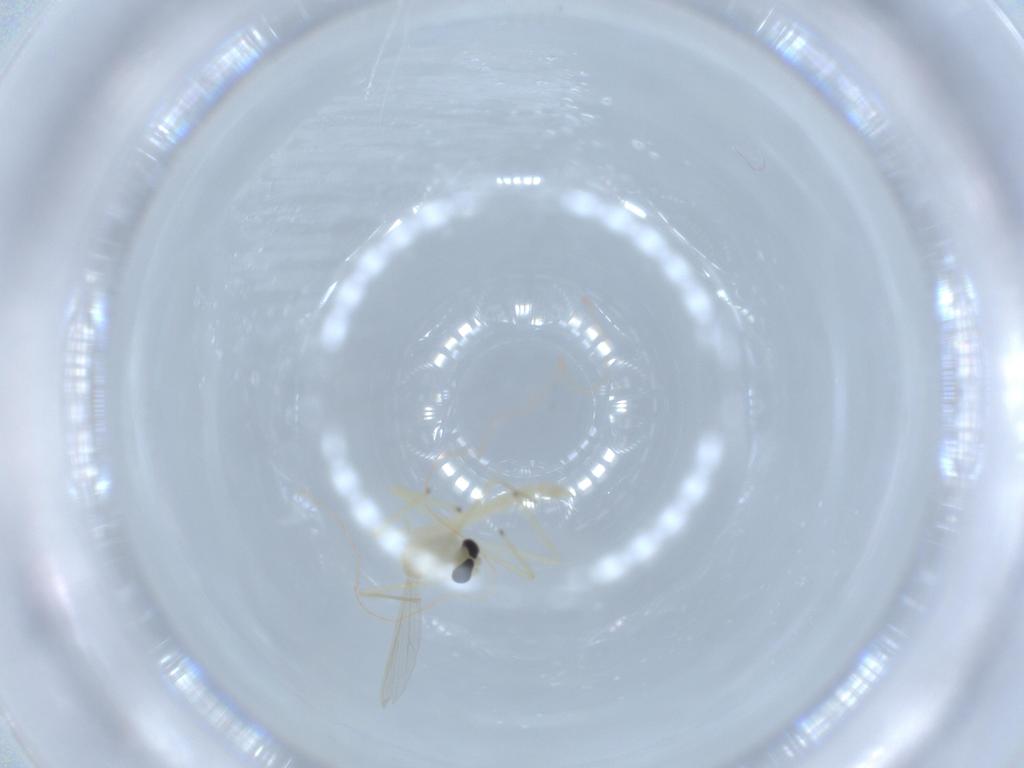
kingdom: Animalia
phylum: Arthropoda
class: Insecta
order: Diptera
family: Chironomidae
